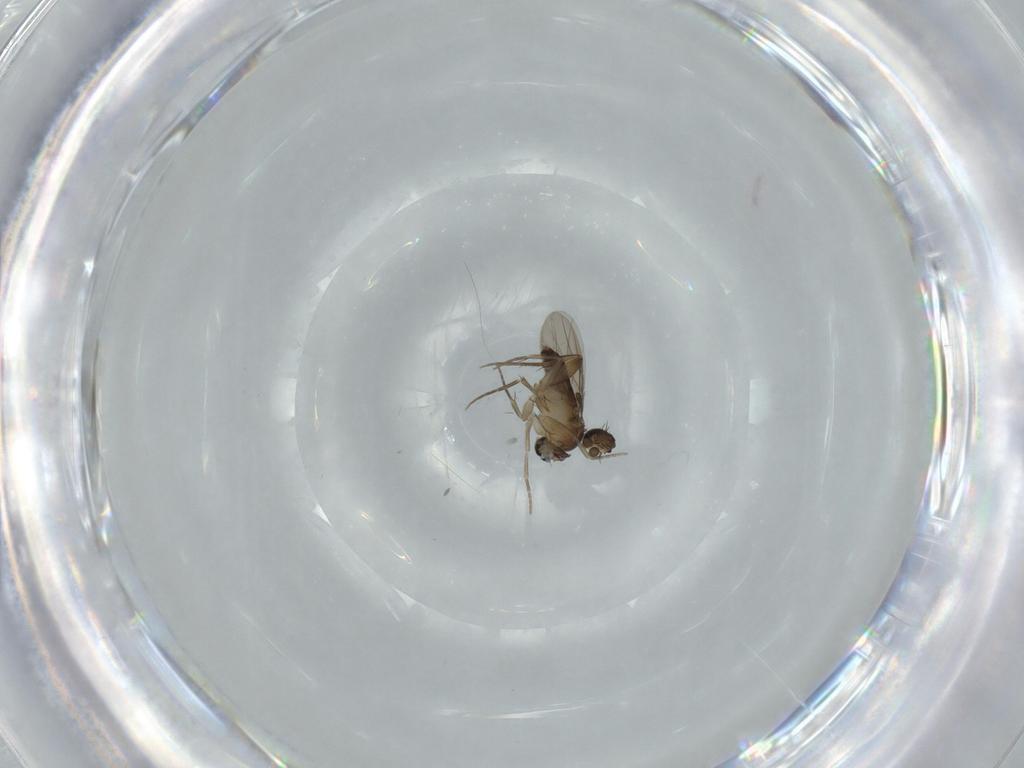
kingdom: Animalia
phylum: Arthropoda
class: Insecta
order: Diptera
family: Phoridae
